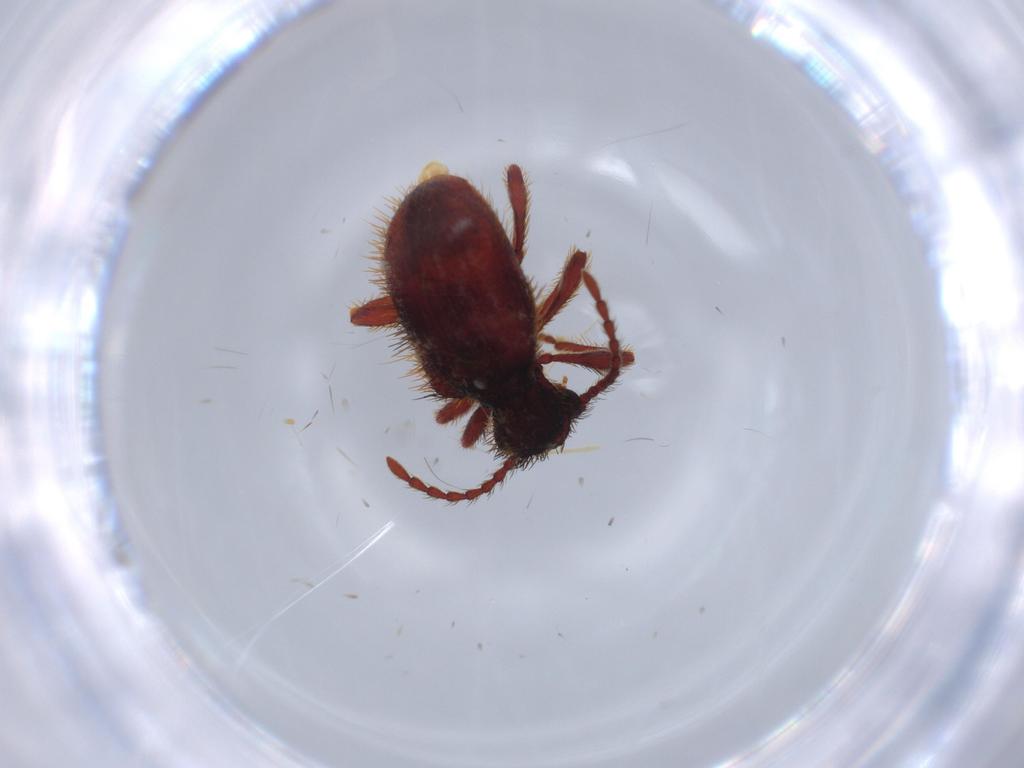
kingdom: Animalia
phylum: Arthropoda
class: Insecta
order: Coleoptera
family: Ptinidae
